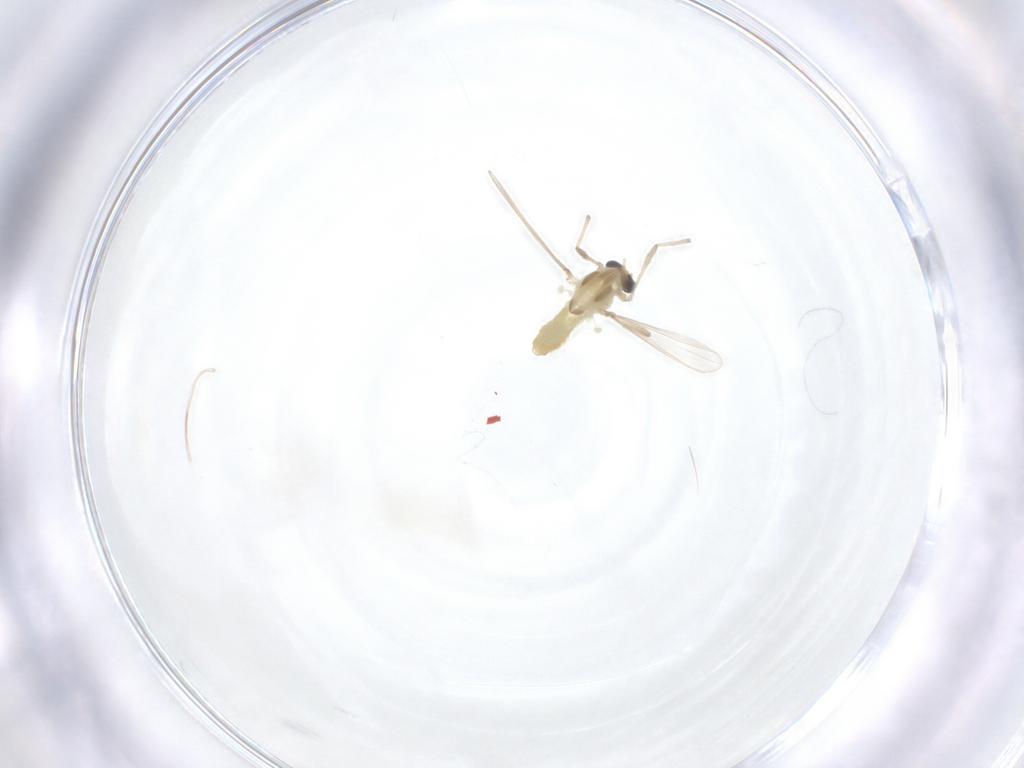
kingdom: Animalia
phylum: Arthropoda
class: Insecta
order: Diptera
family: Chironomidae
